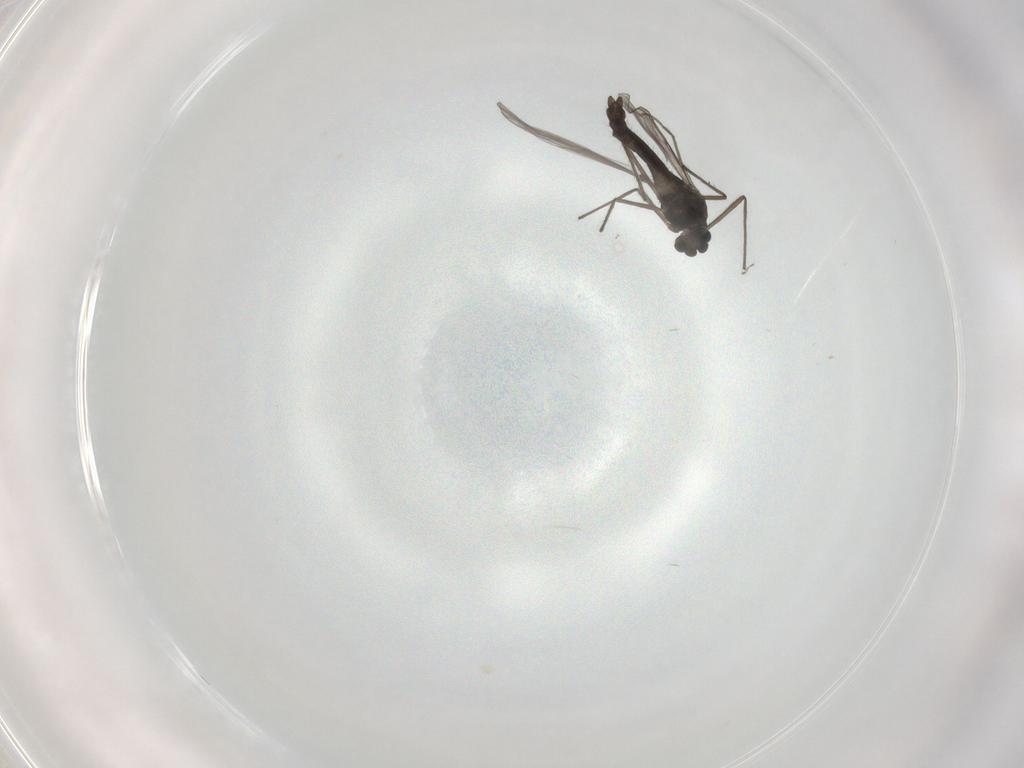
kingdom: Animalia
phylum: Arthropoda
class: Insecta
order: Diptera
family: Chironomidae
